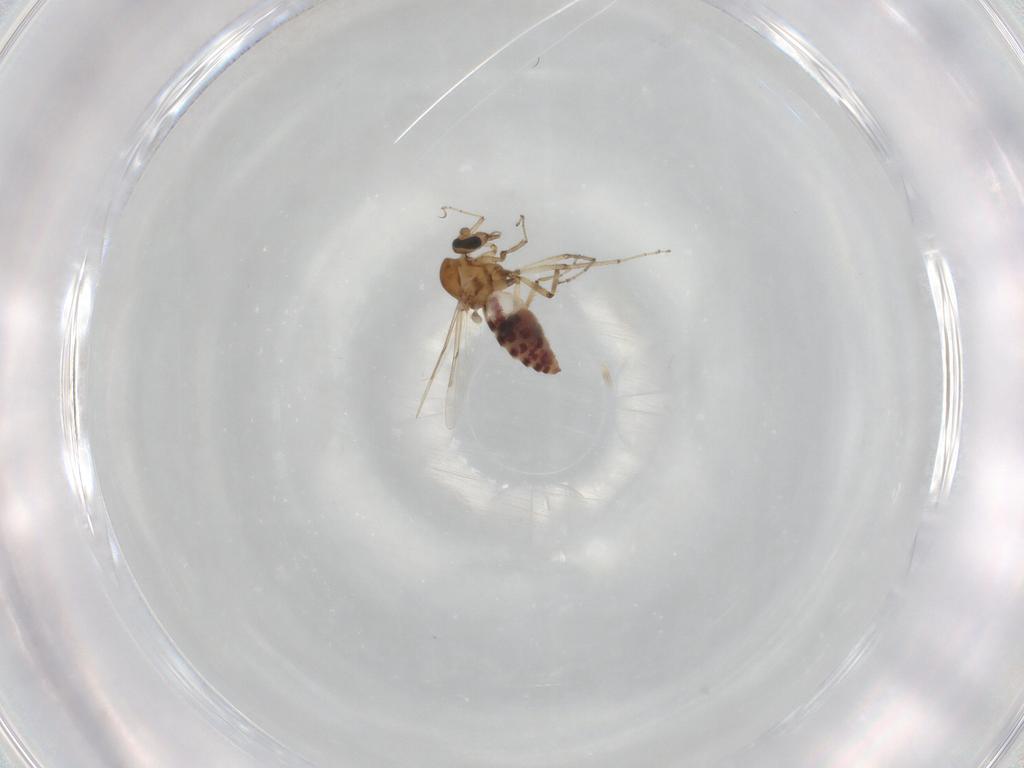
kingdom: Animalia
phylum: Arthropoda
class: Insecta
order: Diptera
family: Ceratopogonidae
